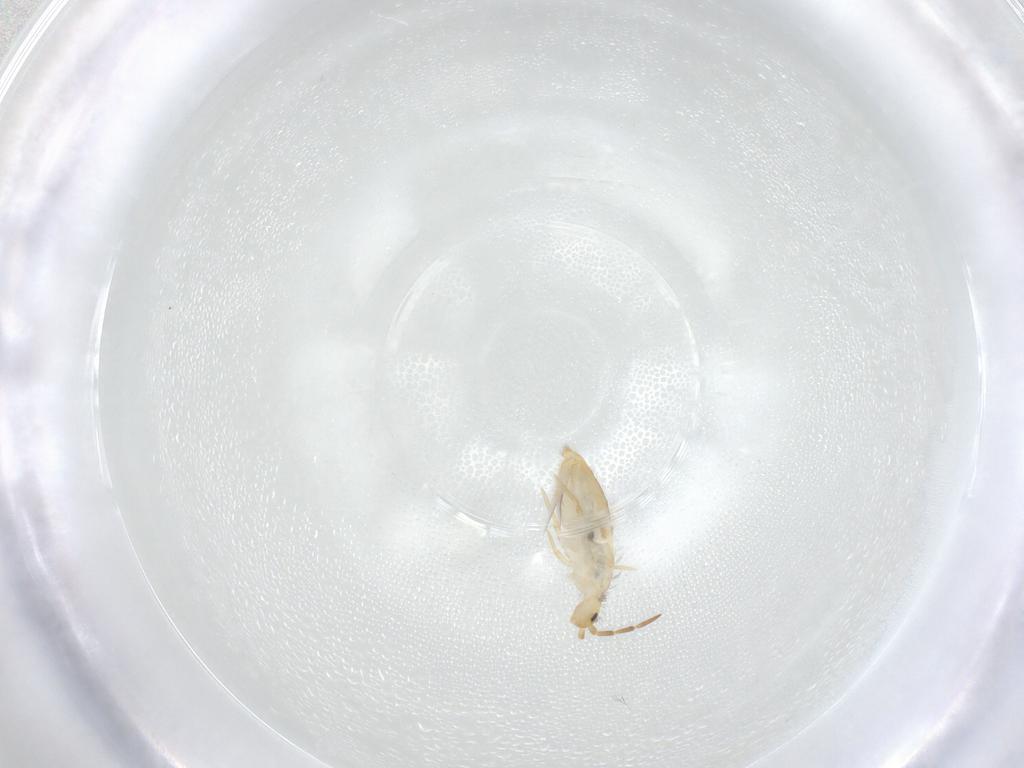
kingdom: Animalia
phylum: Arthropoda
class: Collembola
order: Entomobryomorpha
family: Entomobryidae
